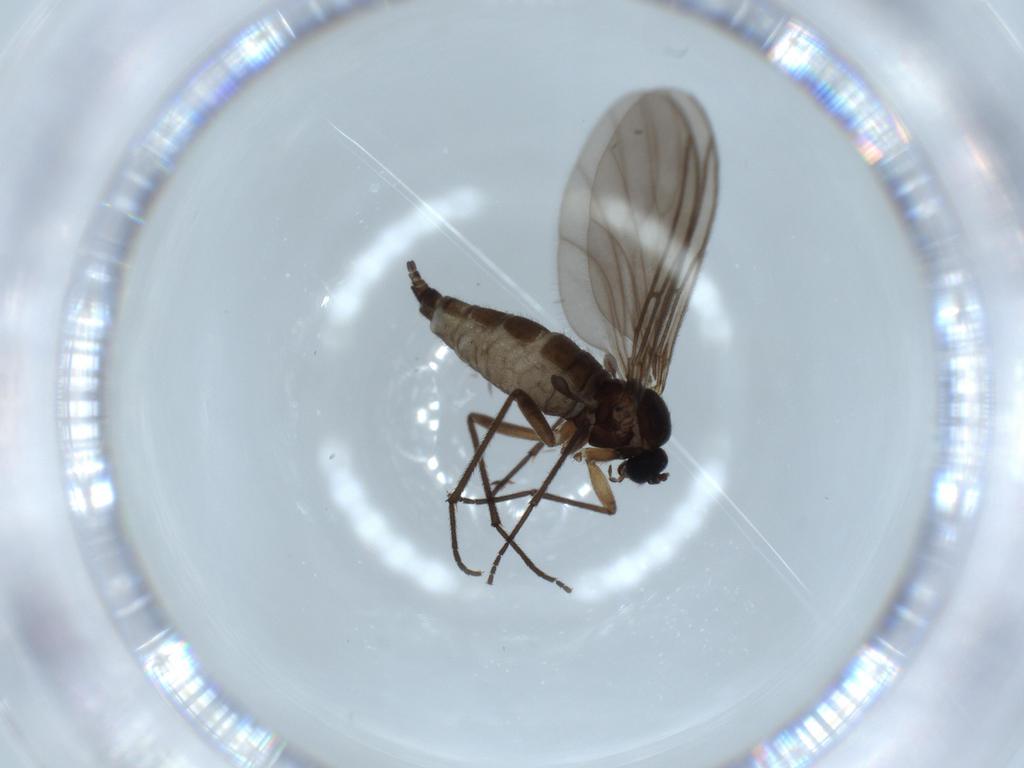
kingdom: Animalia
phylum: Arthropoda
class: Insecta
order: Diptera
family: Sciaridae
